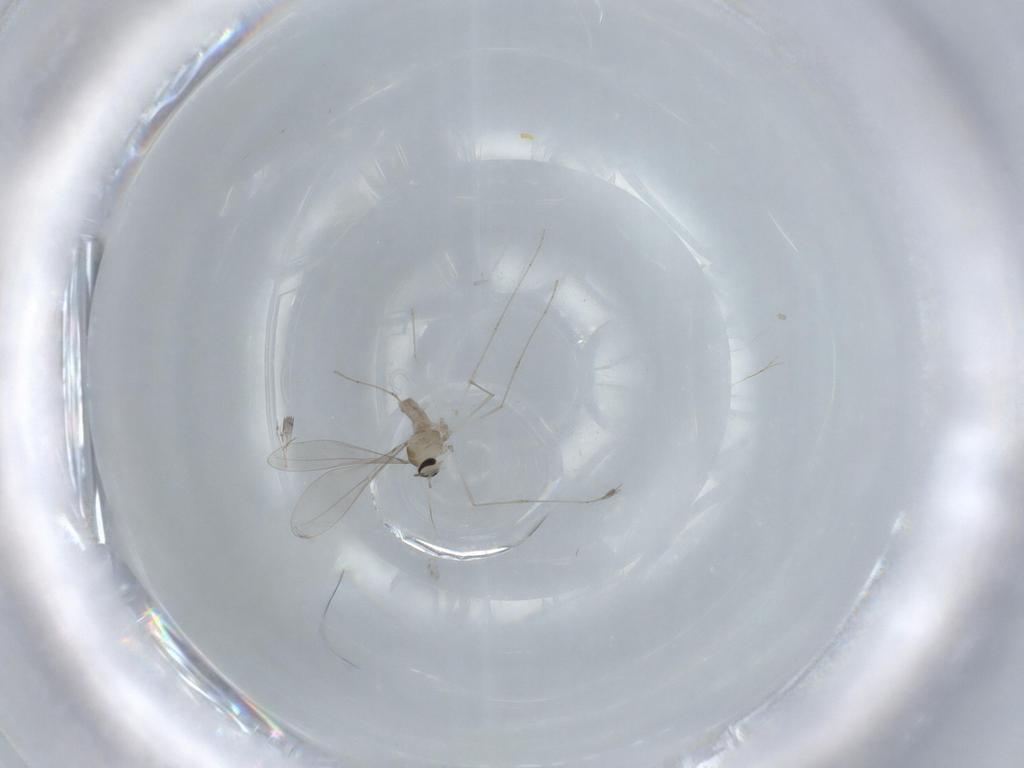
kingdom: Animalia
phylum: Arthropoda
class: Insecta
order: Diptera
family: Cecidomyiidae
